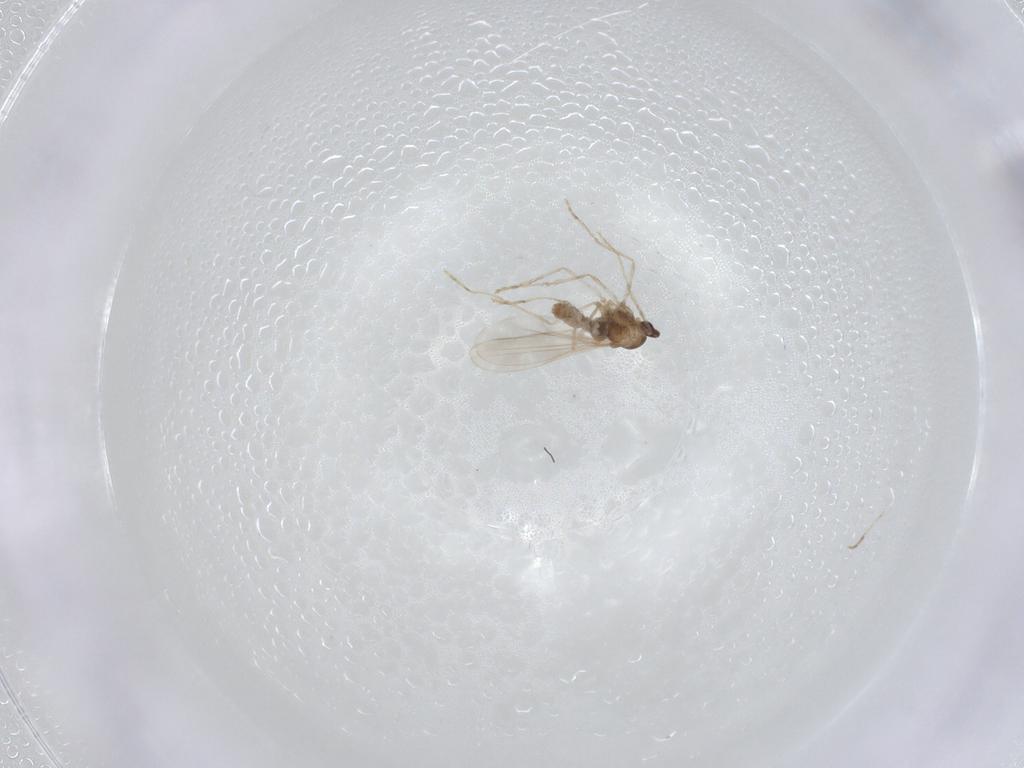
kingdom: Animalia
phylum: Arthropoda
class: Insecta
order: Diptera
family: Cecidomyiidae
